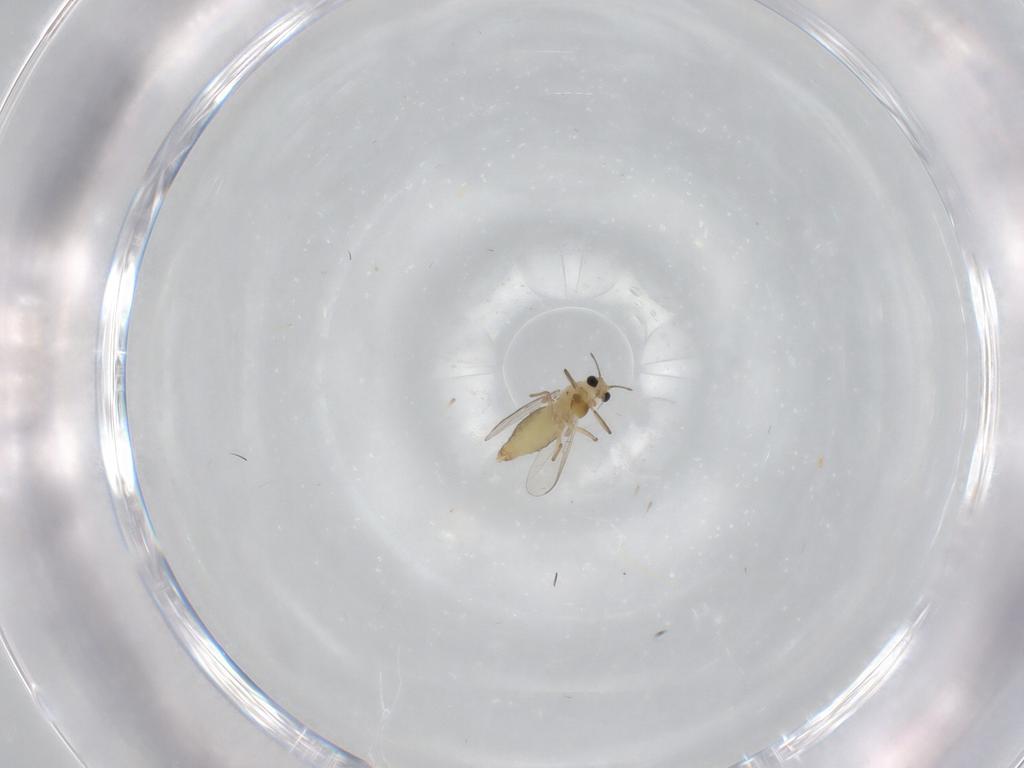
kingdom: Animalia
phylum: Arthropoda
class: Insecta
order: Diptera
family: Chironomidae
